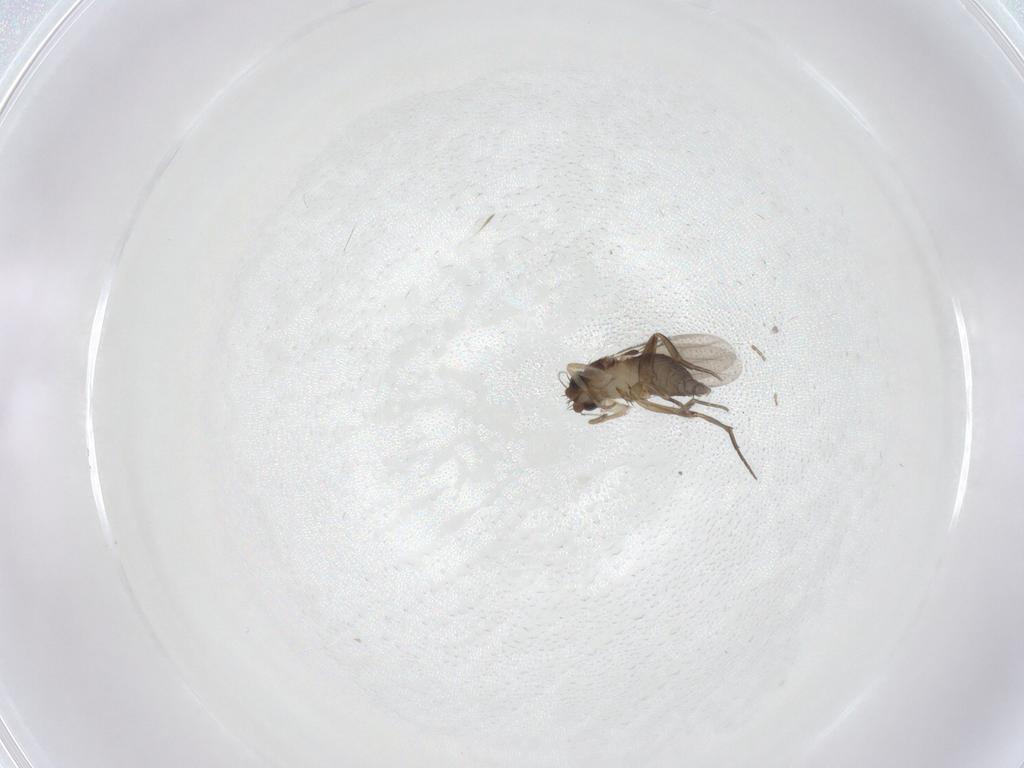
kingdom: Animalia
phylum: Arthropoda
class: Insecta
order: Diptera
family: Phoridae
